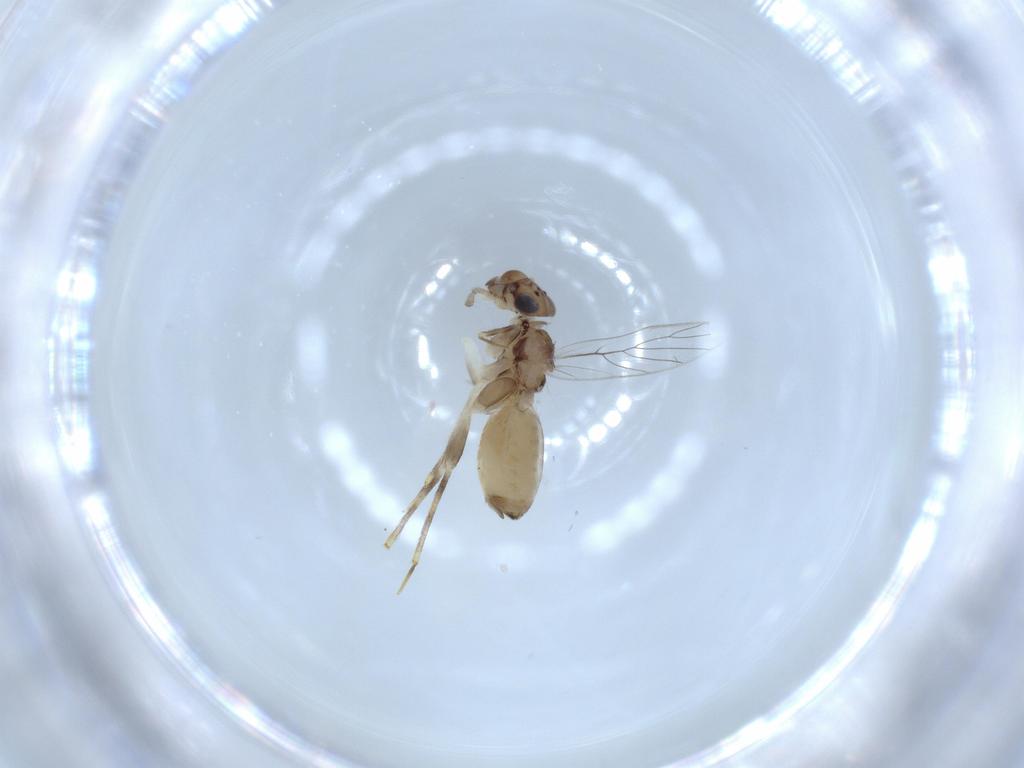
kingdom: Animalia
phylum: Arthropoda
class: Insecta
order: Psocodea
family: Lepidopsocidae
